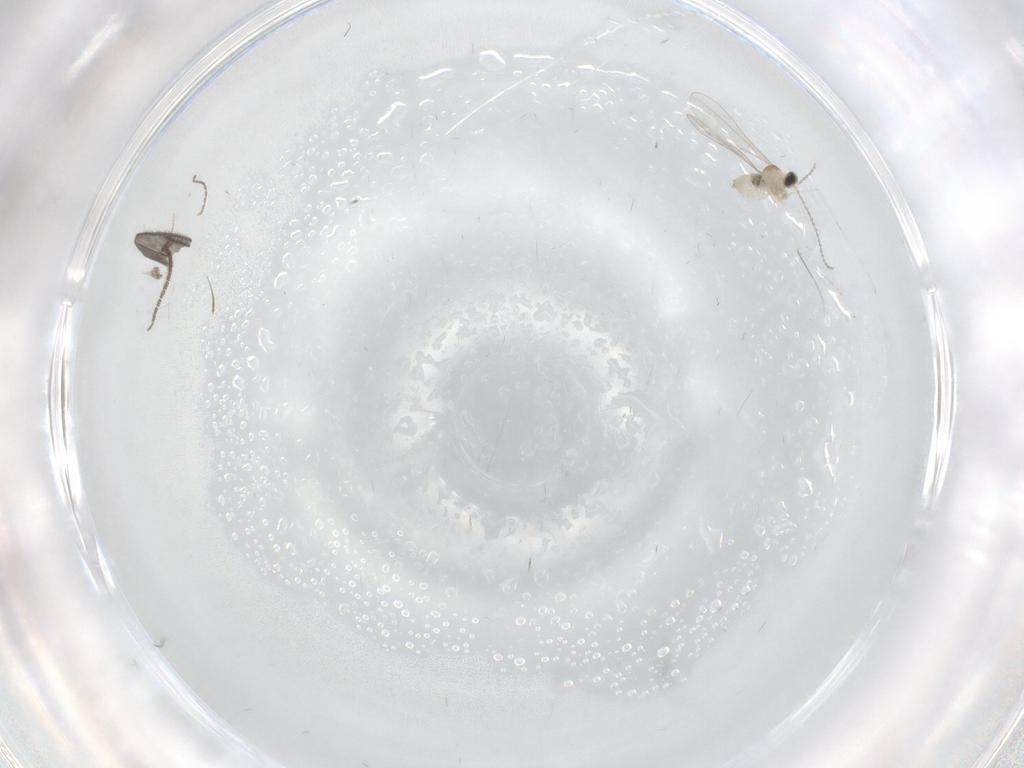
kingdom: Animalia
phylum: Arthropoda
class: Insecta
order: Diptera
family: Cecidomyiidae
